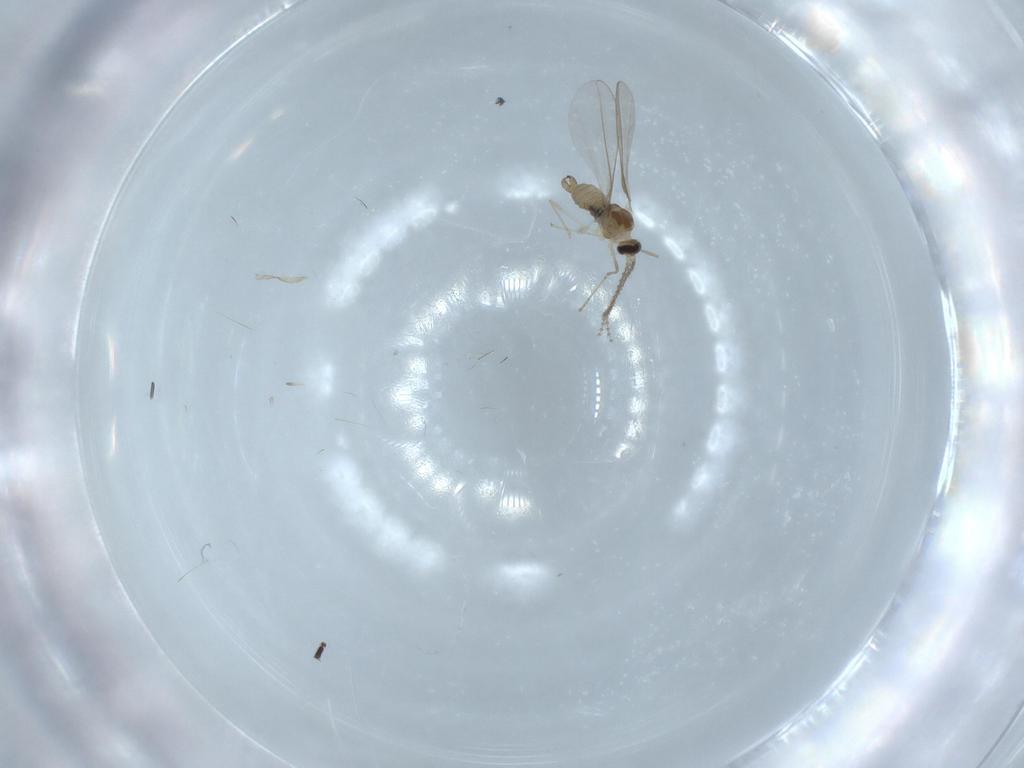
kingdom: Animalia
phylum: Arthropoda
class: Insecta
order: Diptera
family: Cecidomyiidae
